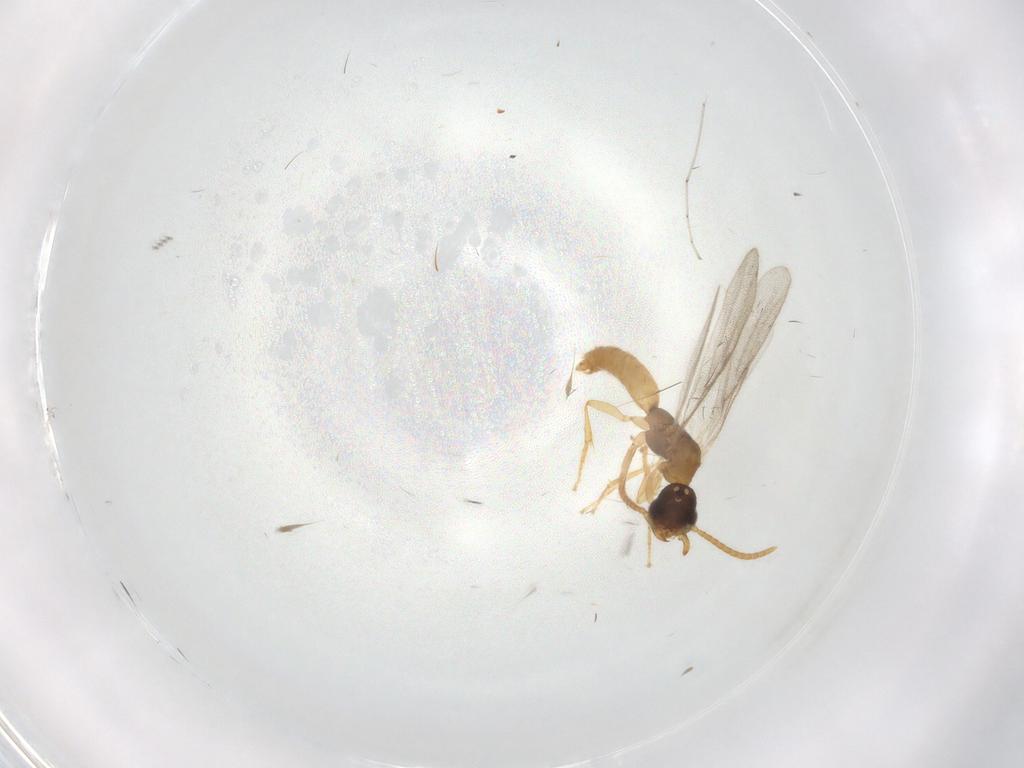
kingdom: Animalia
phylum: Arthropoda
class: Insecta
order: Hymenoptera
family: Bethylidae
